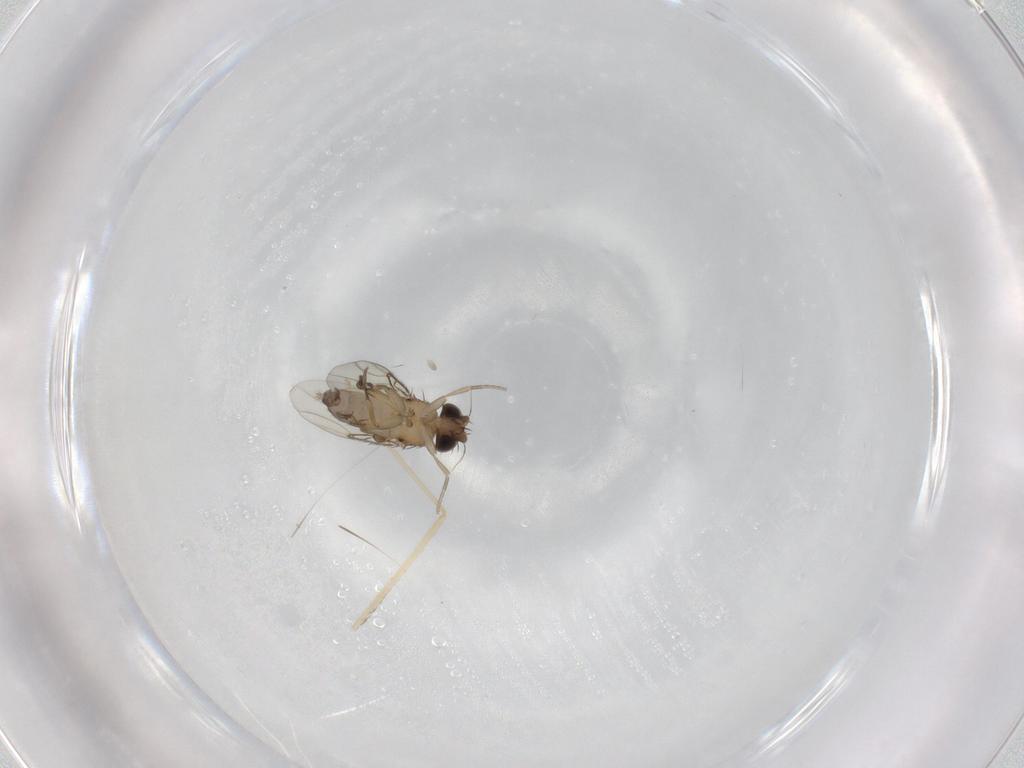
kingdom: Animalia
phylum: Arthropoda
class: Insecta
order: Diptera
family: Phoridae
